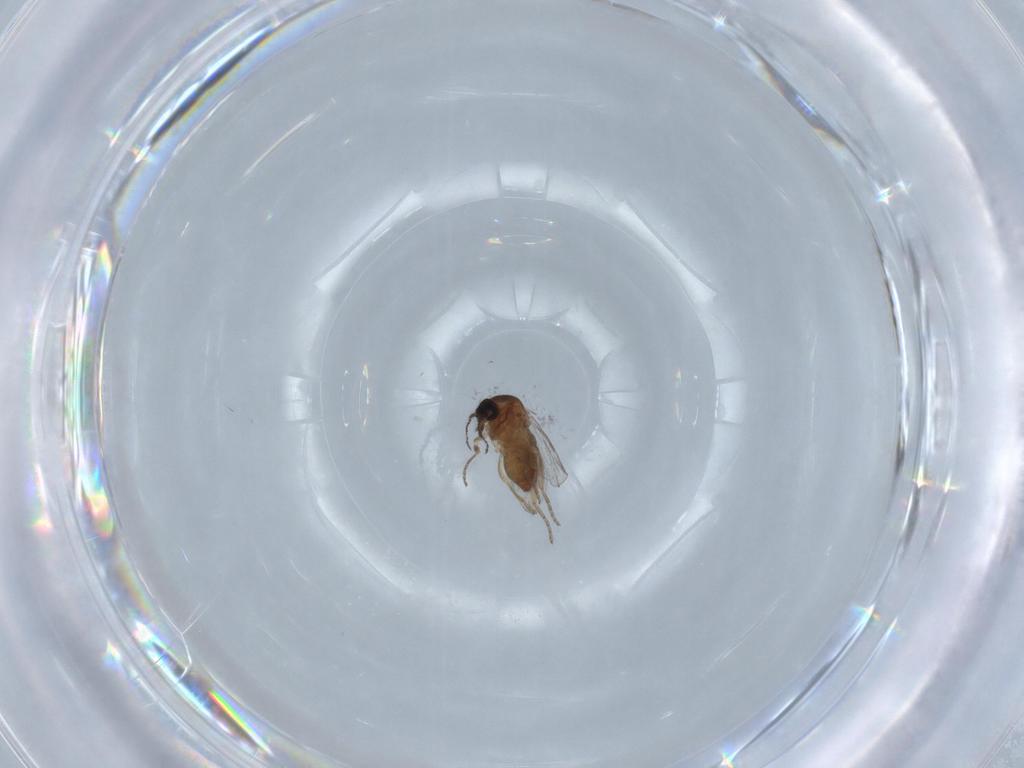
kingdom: Animalia
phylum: Arthropoda
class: Insecta
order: Diptera
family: Ceratopogonidae
